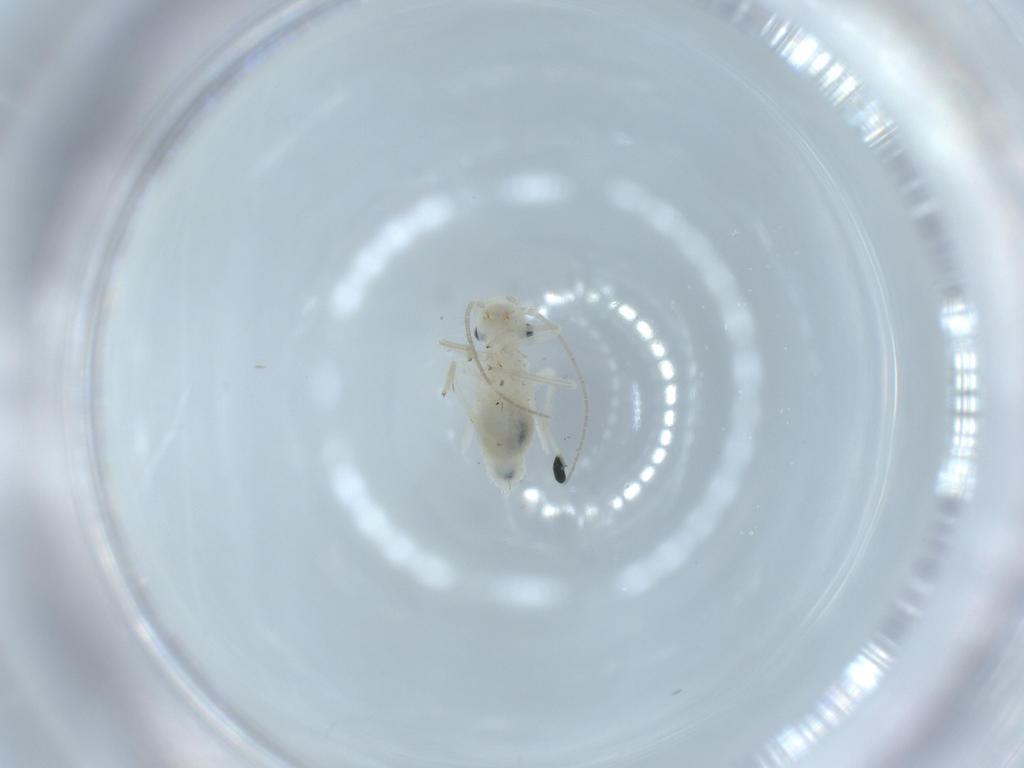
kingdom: Animalia
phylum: Arthropoda
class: Insecta
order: Psocodea
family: Caeciliusidae
